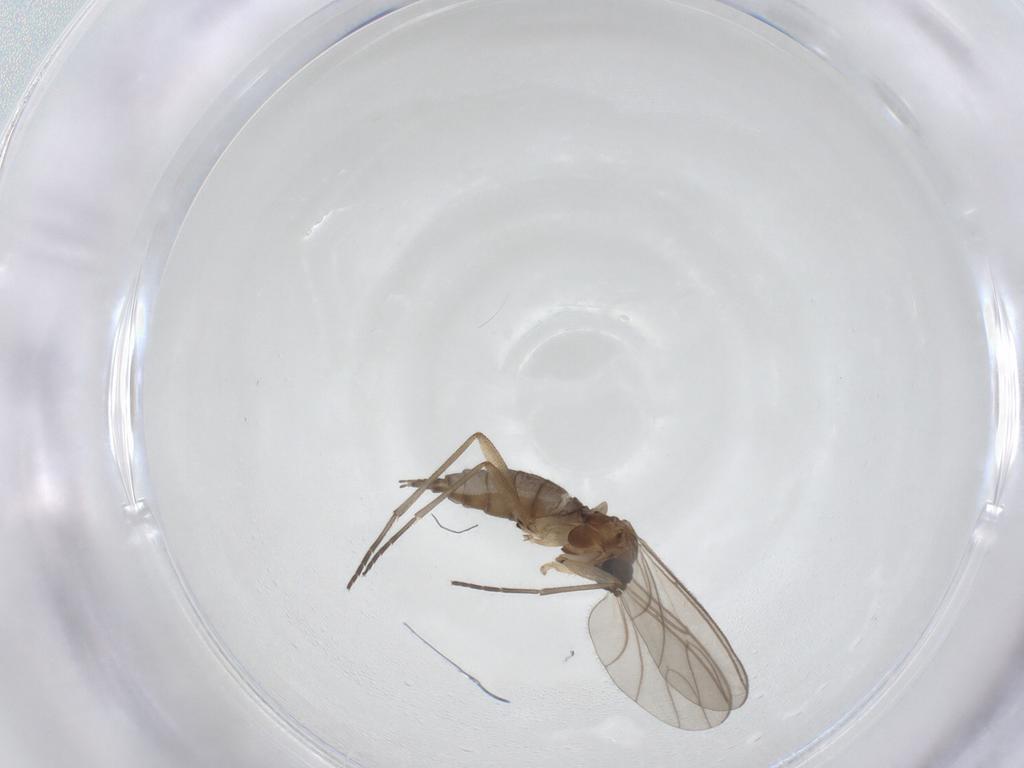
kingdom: Animalia
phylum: Arthropoda
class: Insecta
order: Diptera
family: Sciaridae
